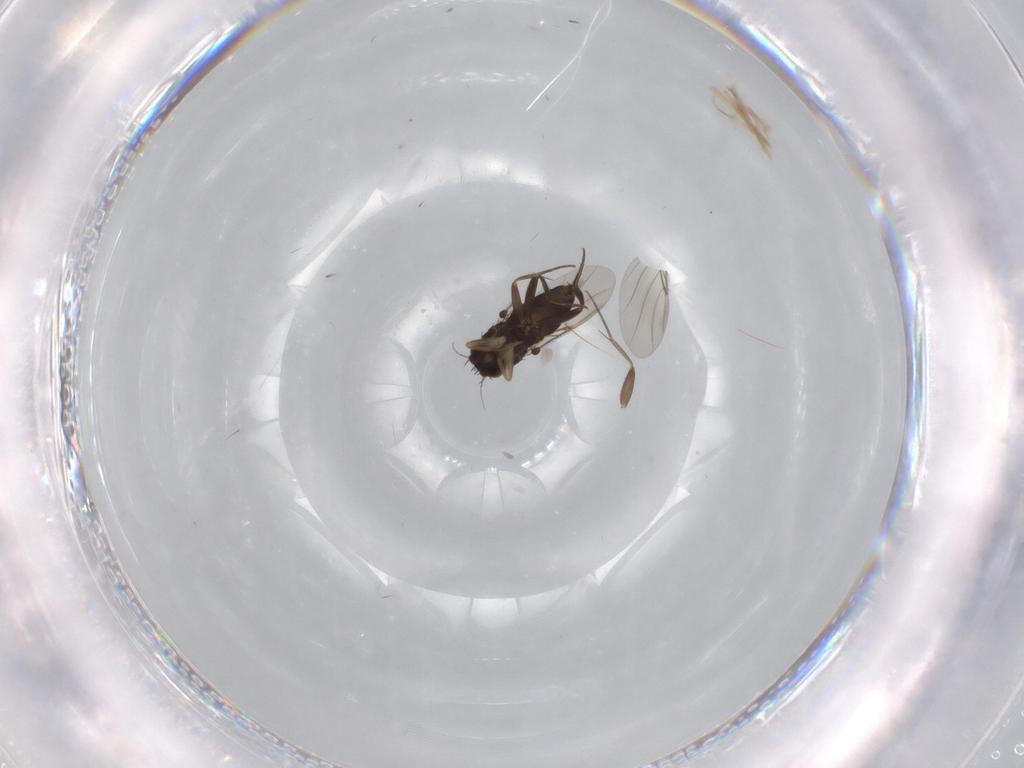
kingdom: Animalia
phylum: Arthropoda
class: Insecta
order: Diptera
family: Phoridae
